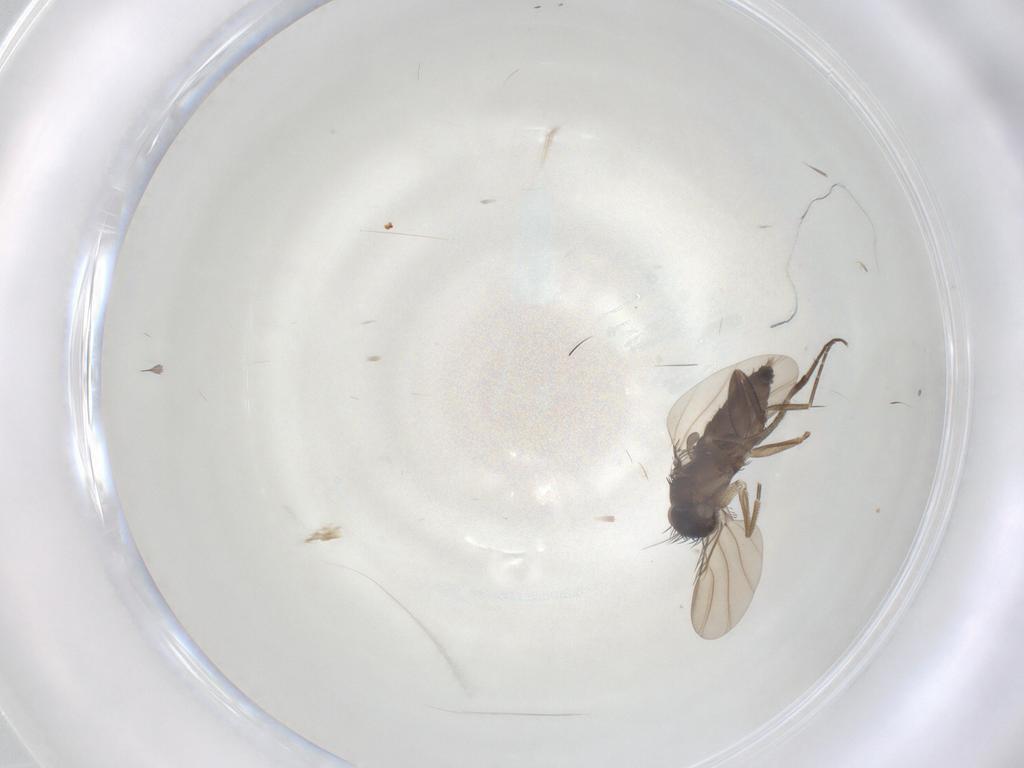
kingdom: Animalia
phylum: Arthropoda
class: Insecta
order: Diptera
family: Phoridae
